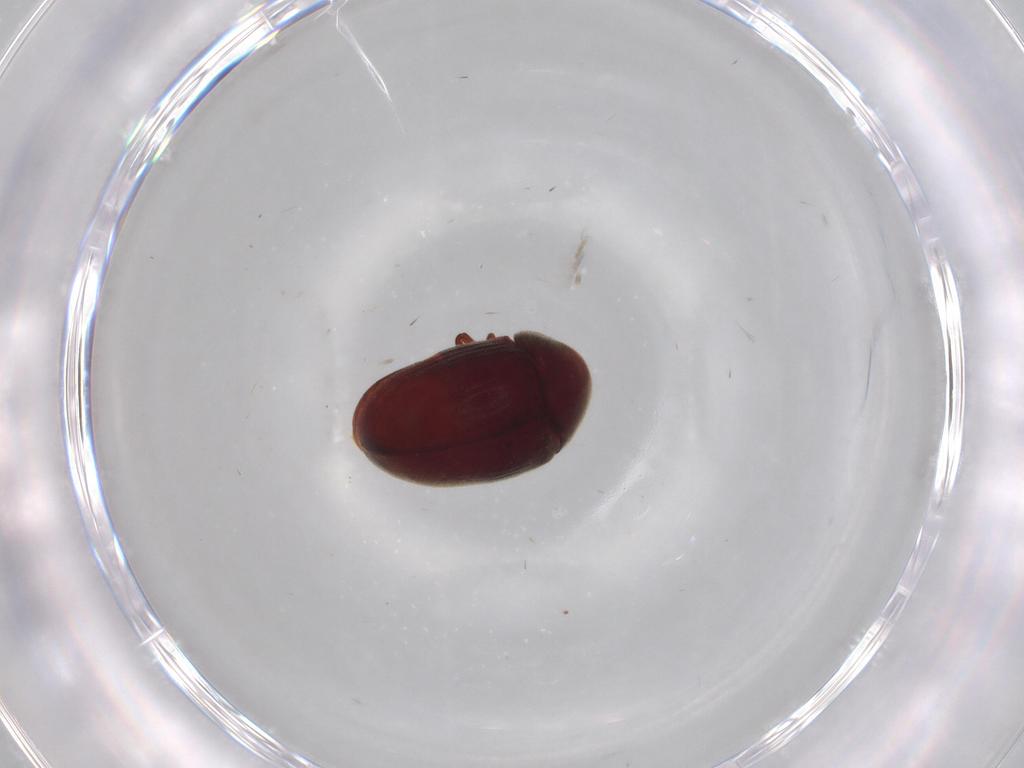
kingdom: Animalia
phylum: Arthropoda
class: Insecta
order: Coleoptera
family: Ptinidae
